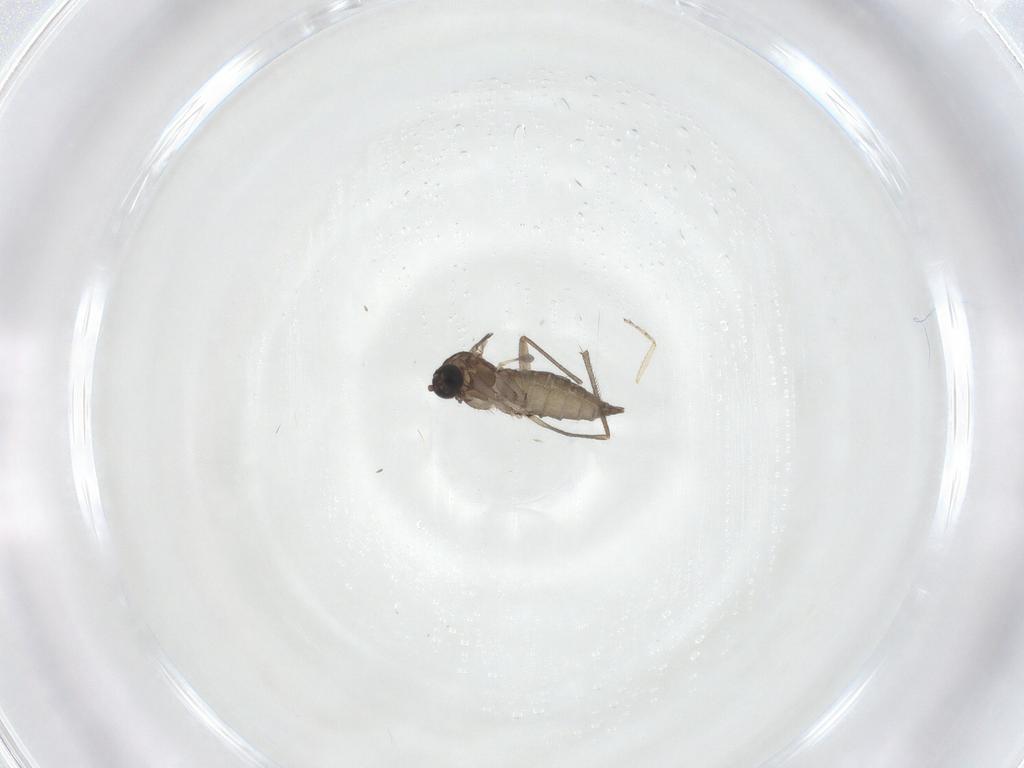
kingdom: Animalia
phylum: Arthropoda
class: Insecta
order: Diptera
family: Sciaridae
